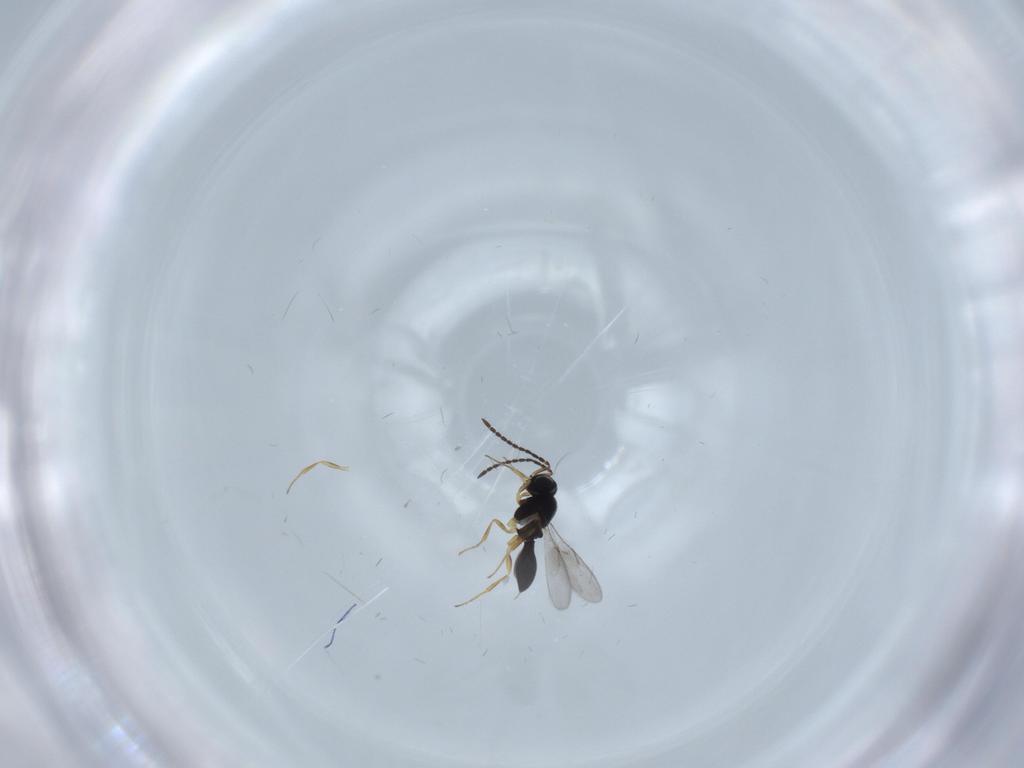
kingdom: Animalia
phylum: Arthropoda
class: Insecta
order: Hymenoptera
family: Scelionidae
